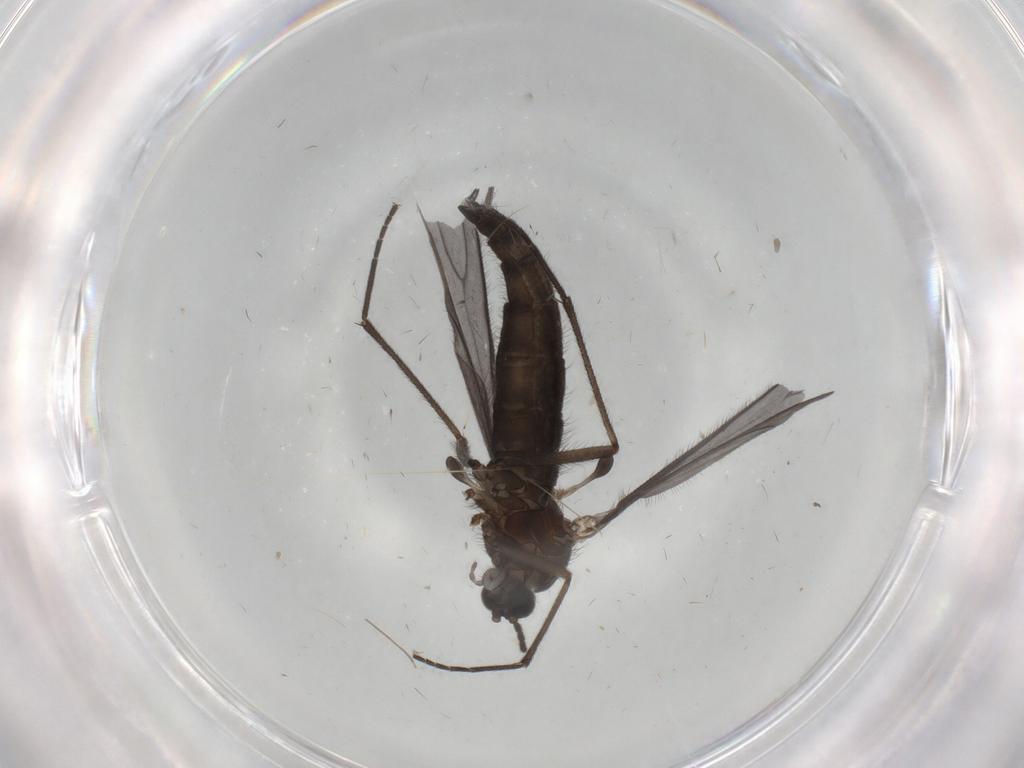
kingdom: Animalia
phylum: Arthropoda
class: Insecta
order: Diptera
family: Sciaridae
